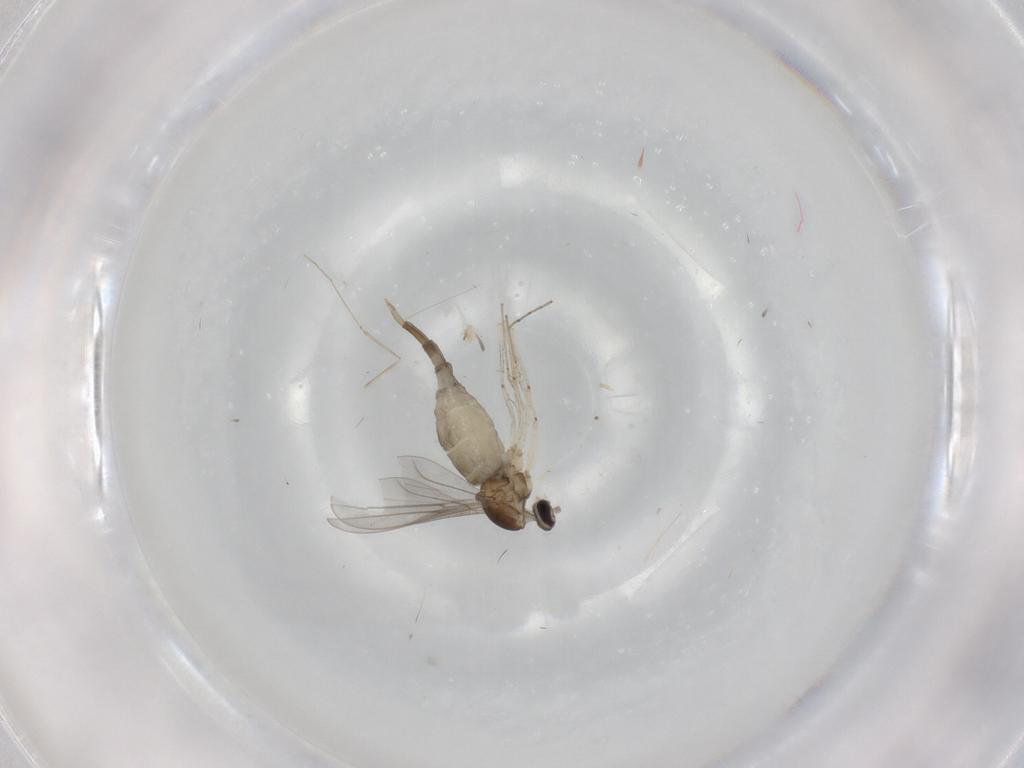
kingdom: Animalia
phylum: Arthropoda
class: Insecta
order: Diptera
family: Cecidomyiidae
